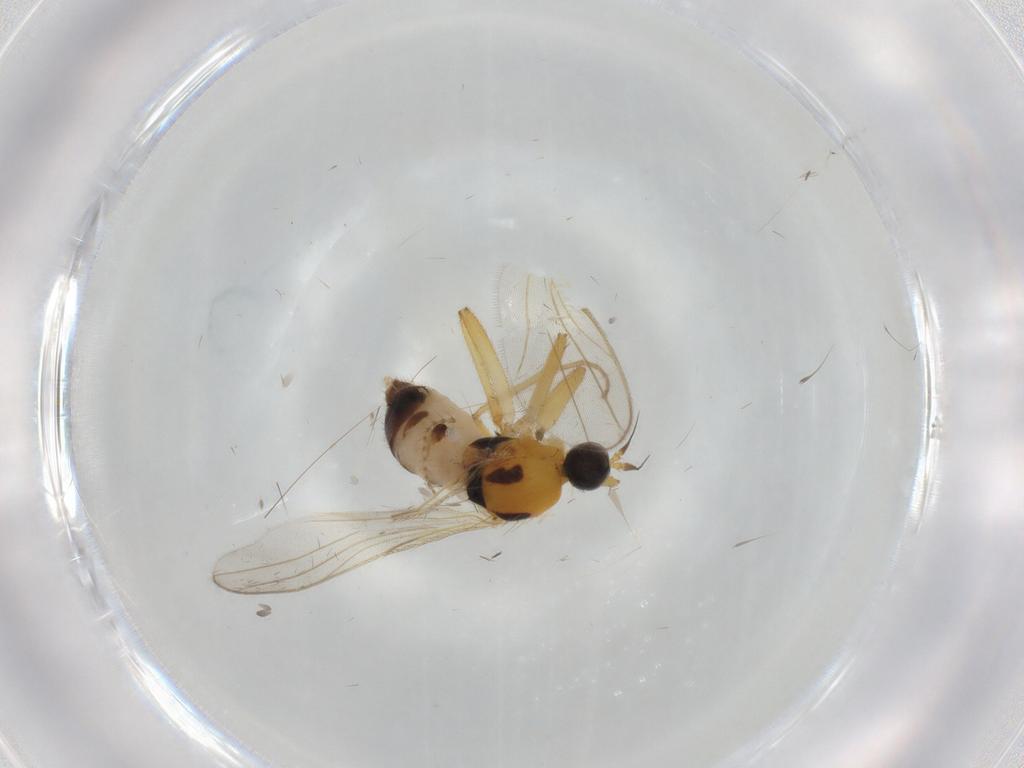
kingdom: Animalia
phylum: Arthropoda
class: Insecta
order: Diptera
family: Hybotidae
